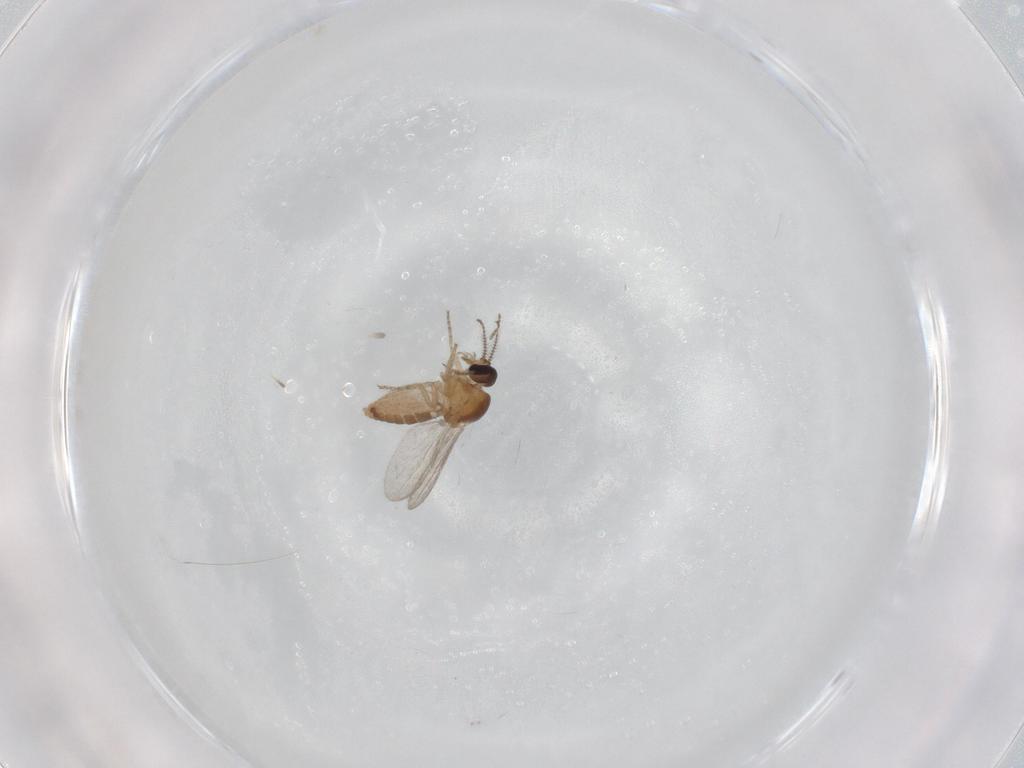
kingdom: Animalia
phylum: Arthropoda
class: Insecta
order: Diptera
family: Ceratopogonidae
